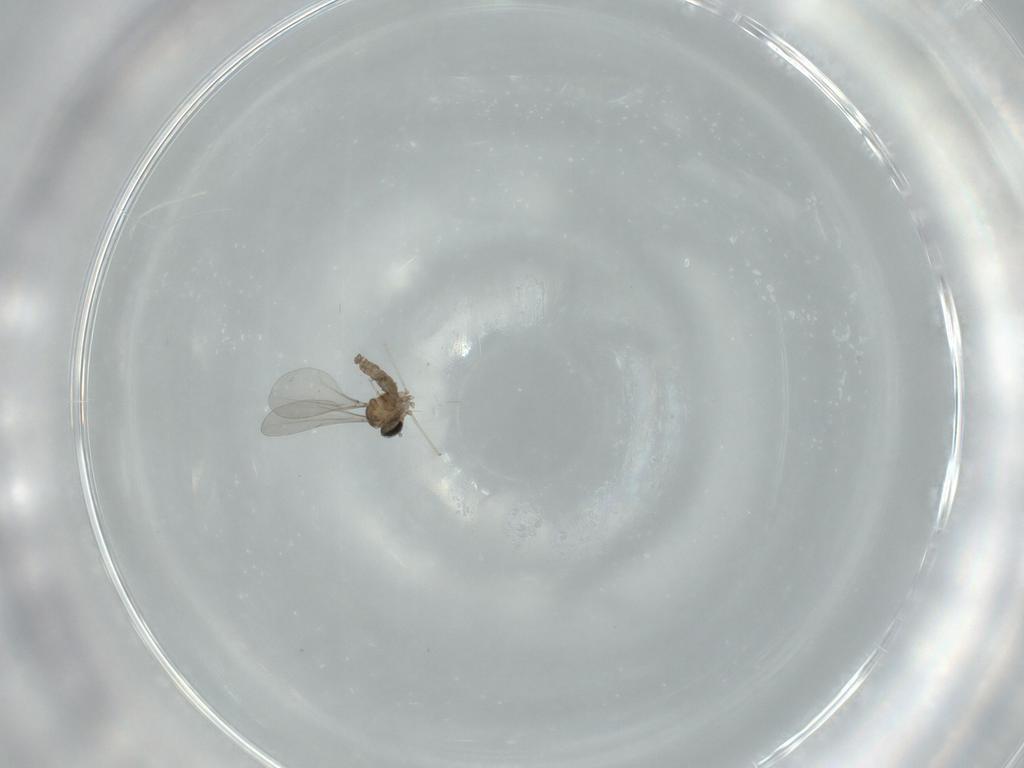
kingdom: Animalia
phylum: Arthropoda
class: Insecta
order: Diptera
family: Cecidomyiidae
